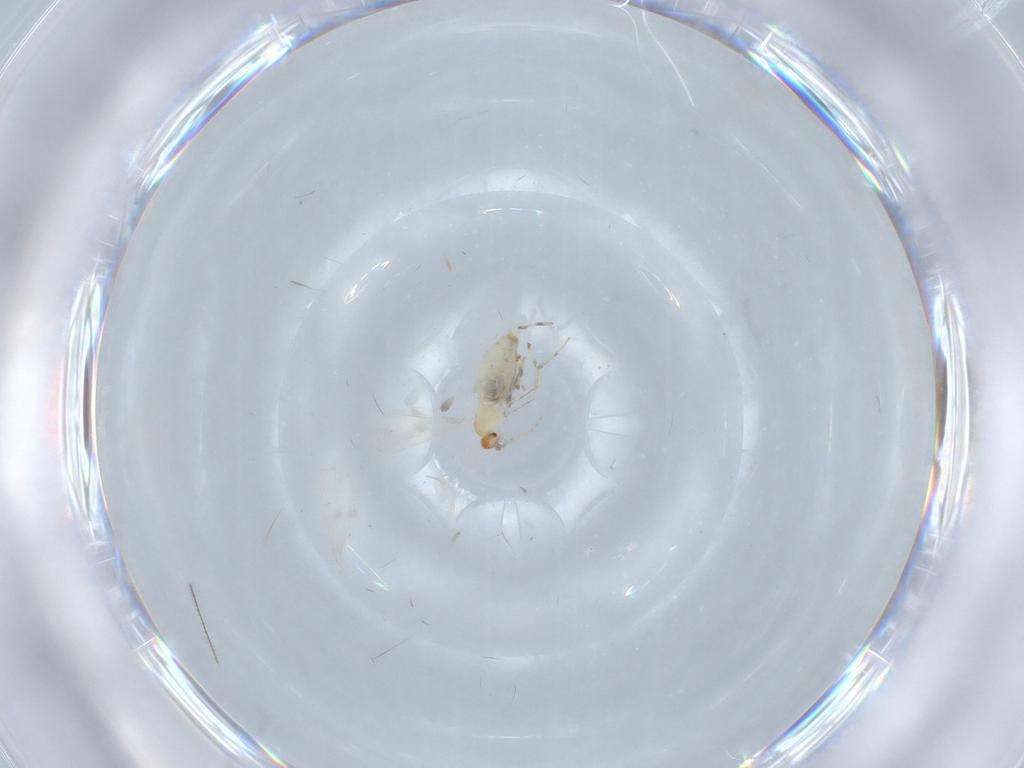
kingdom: Animalia
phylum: Arthropoda
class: Insecta
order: Diptera
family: Cecidomyiidae
